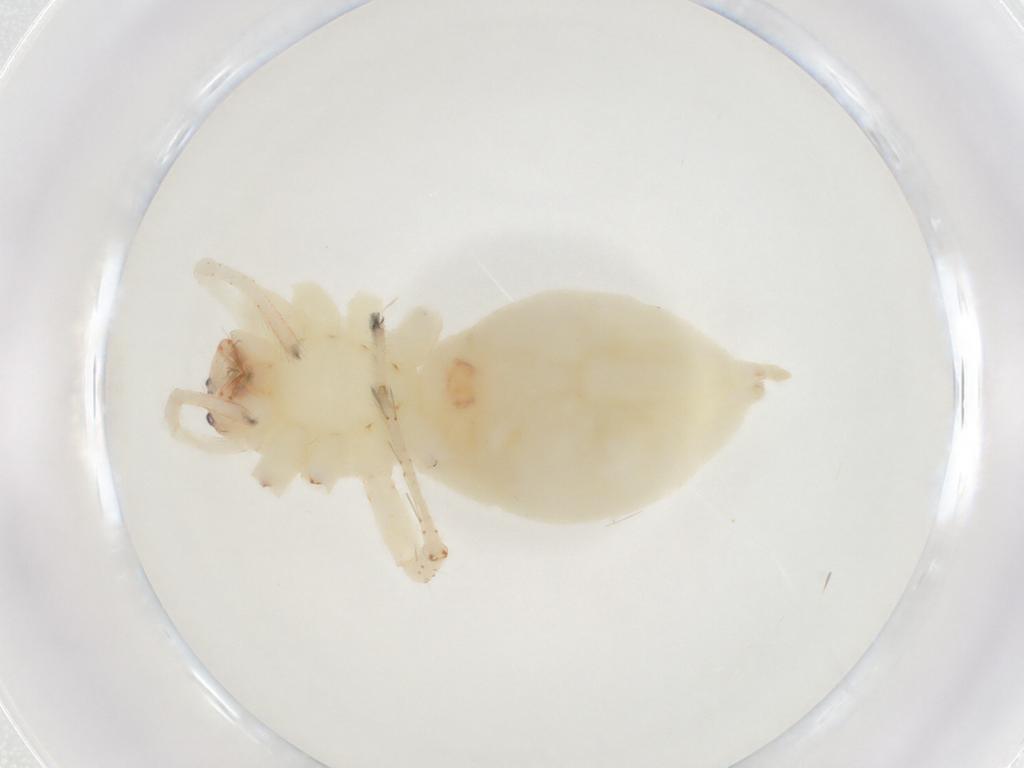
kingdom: Animalia
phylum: Arthropoda
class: Arachnida
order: Araneae
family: Anyphaenidae
